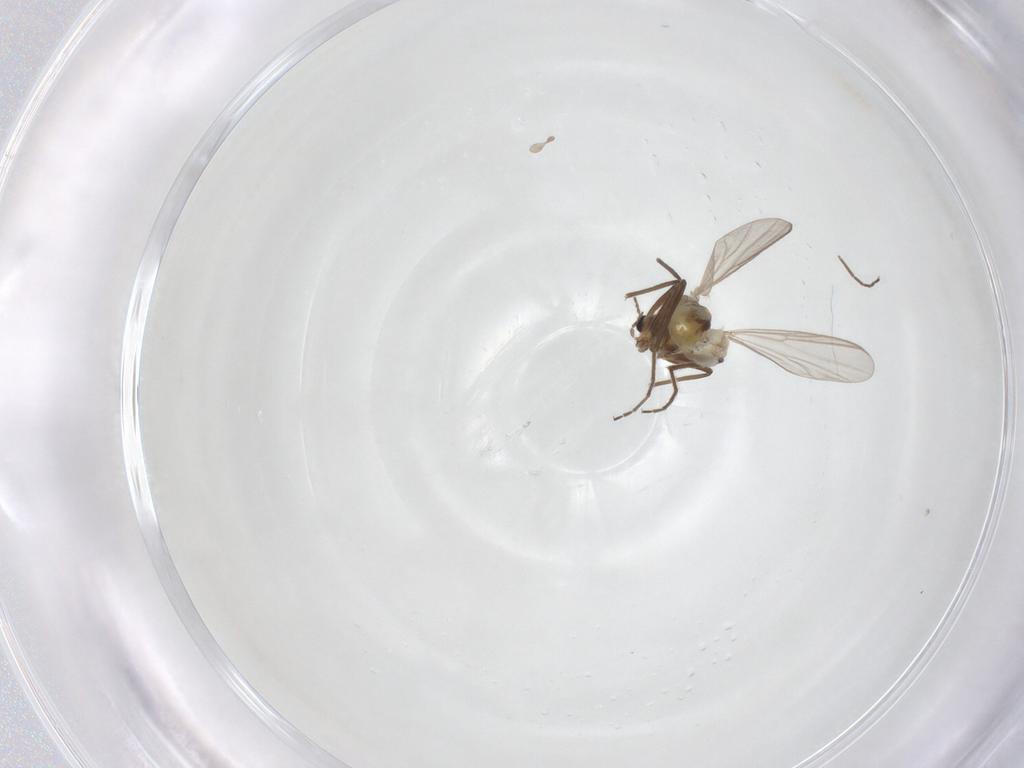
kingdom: Animalia
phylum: Arthropoda
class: Insecta
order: Diptera
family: Chironomidae
